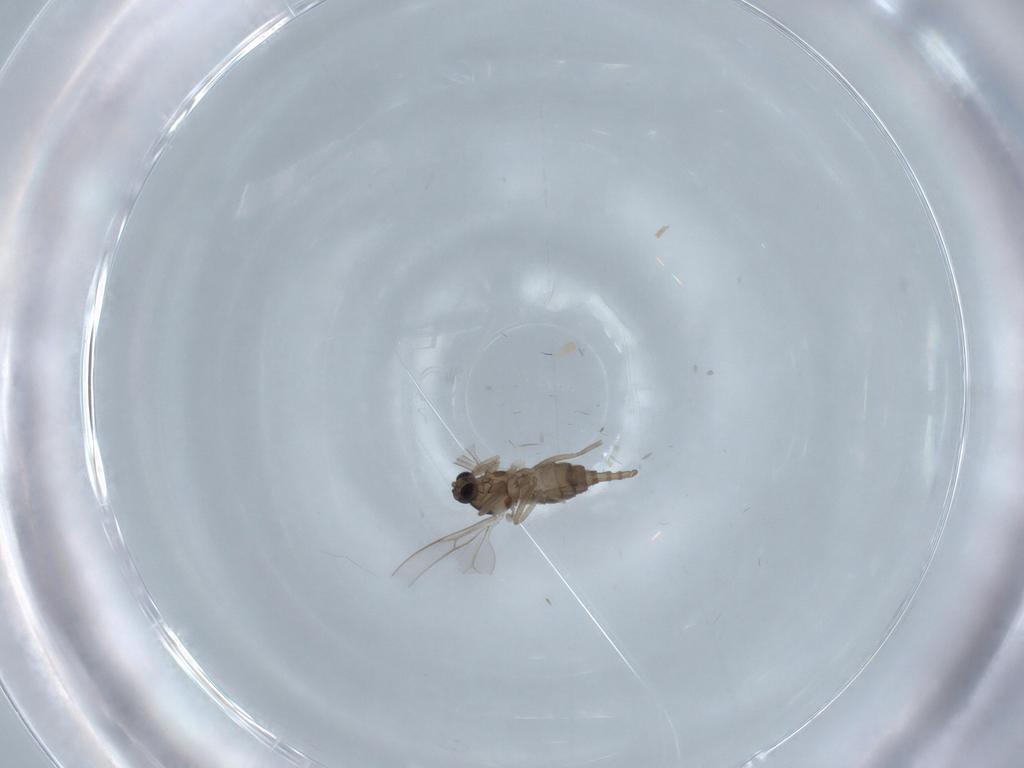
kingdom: Animalia
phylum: Arthropoda
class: Insecta
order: Diptera
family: Cecidomyiidae
